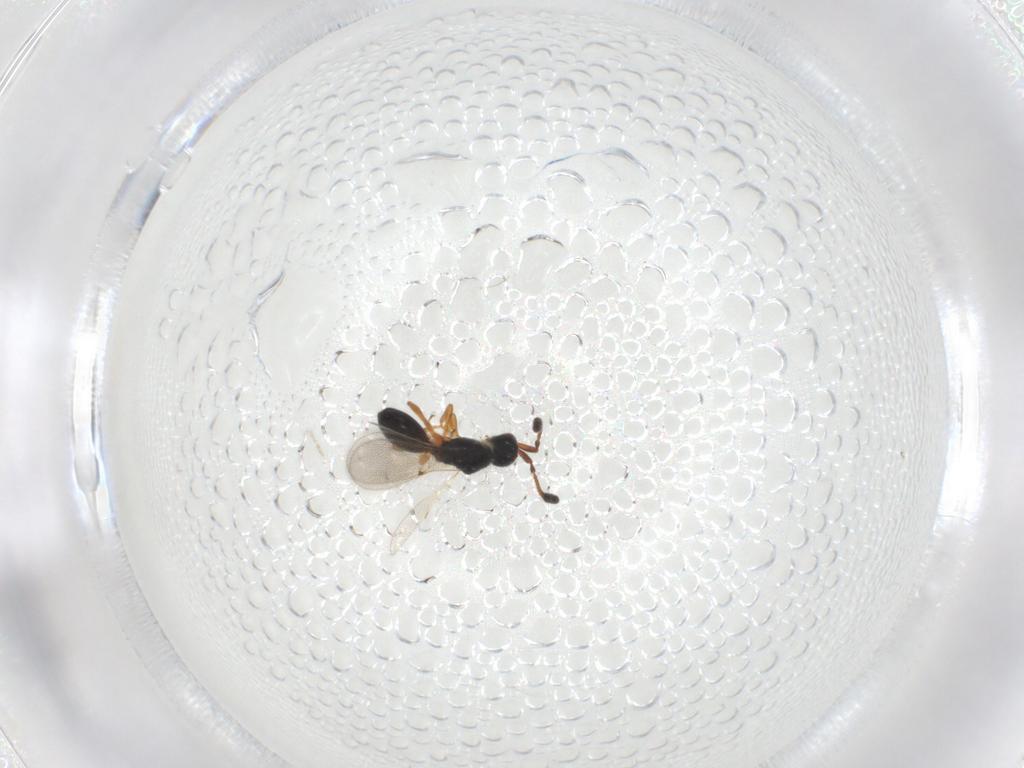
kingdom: Animalia
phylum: Arthropoda
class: Insecta
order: Hymenoptera
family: Diapriidae
